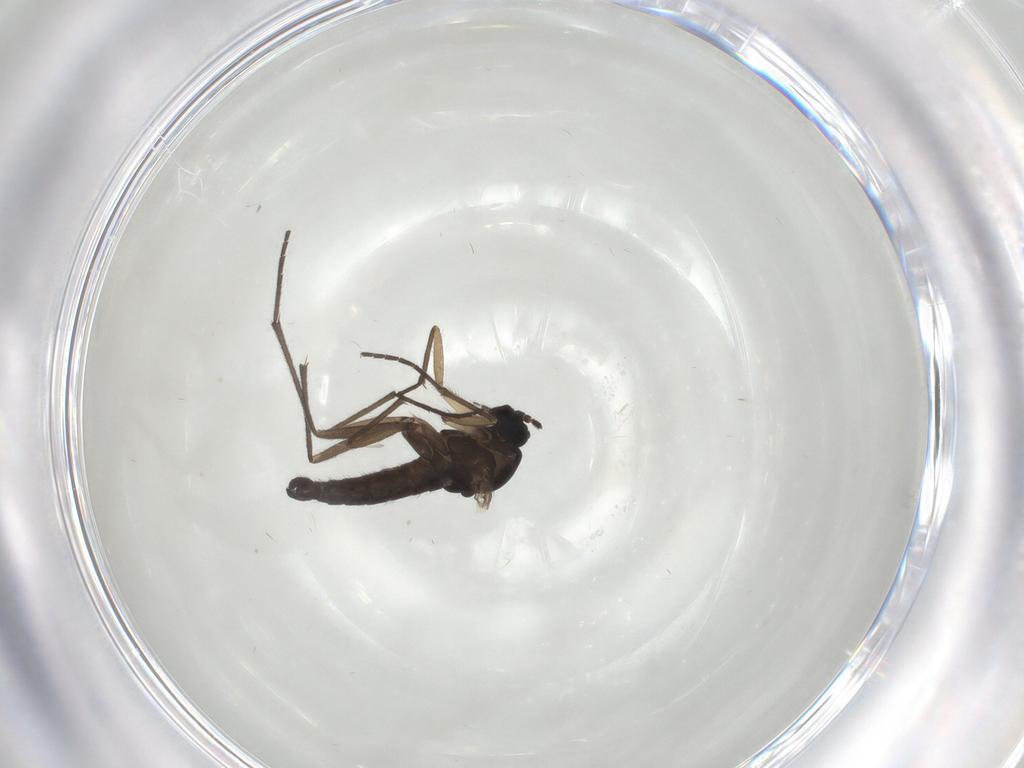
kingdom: Animalia
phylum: Arthropoda
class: Insecta
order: Diptera
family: Sciaridae
